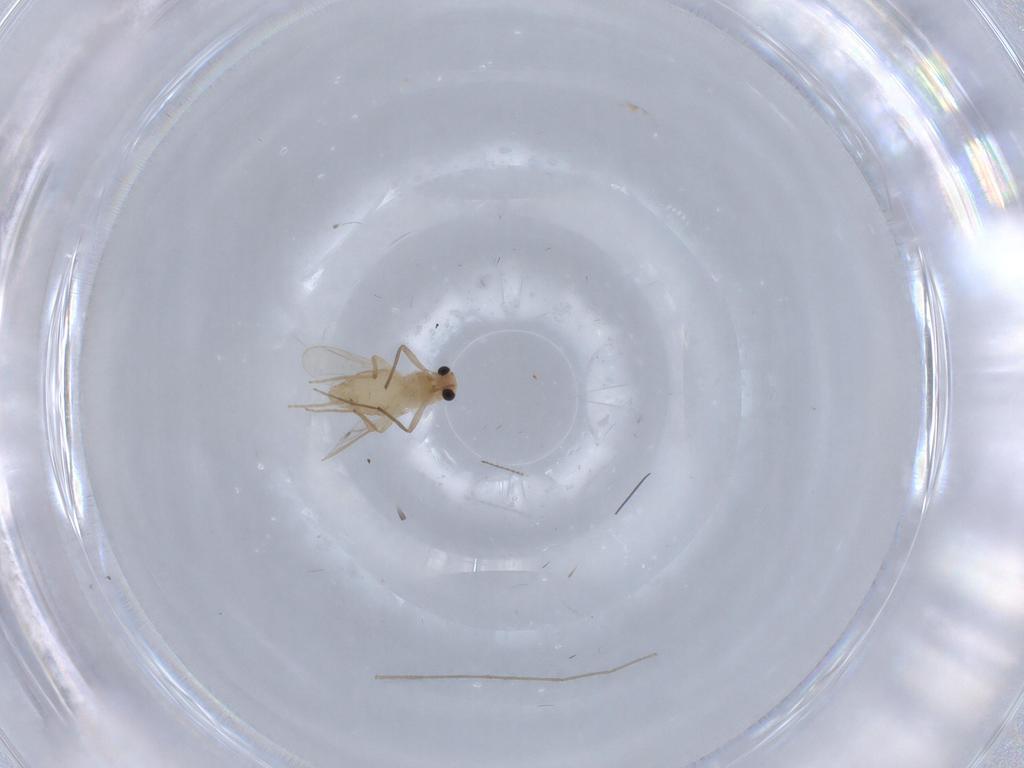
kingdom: Animalia
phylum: Arthropoda
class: Insecta
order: Diptera
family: Chironomidae
